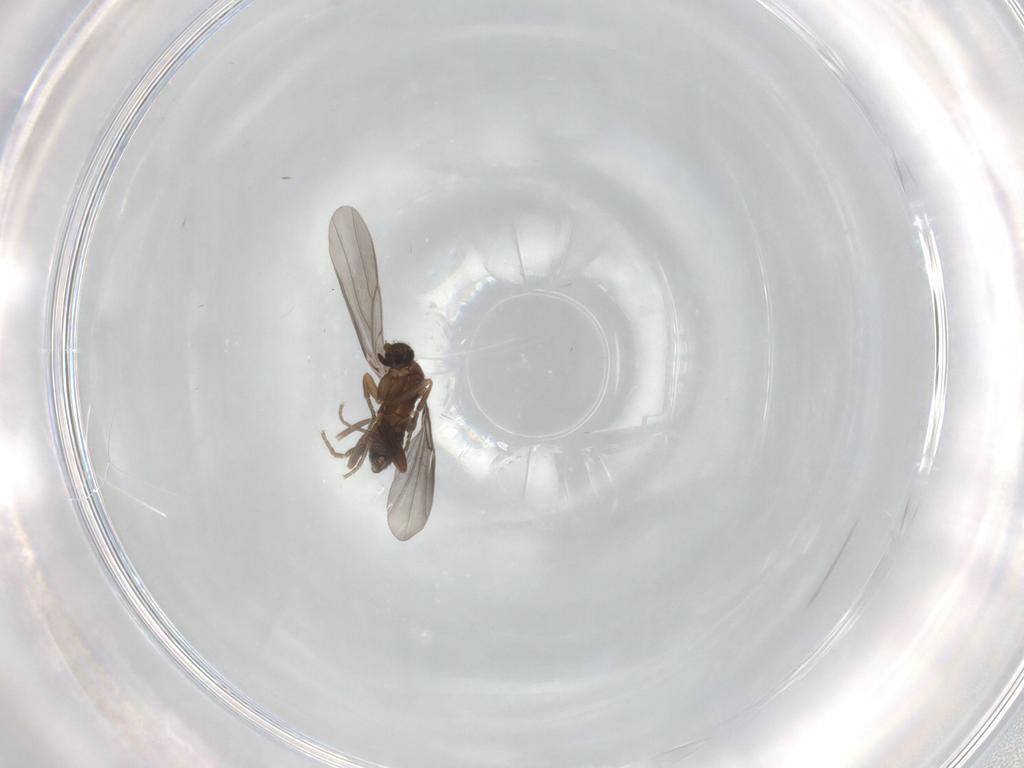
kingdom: Animalia
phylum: Arthropoda
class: Insecta
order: Diptera
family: Phoridae
